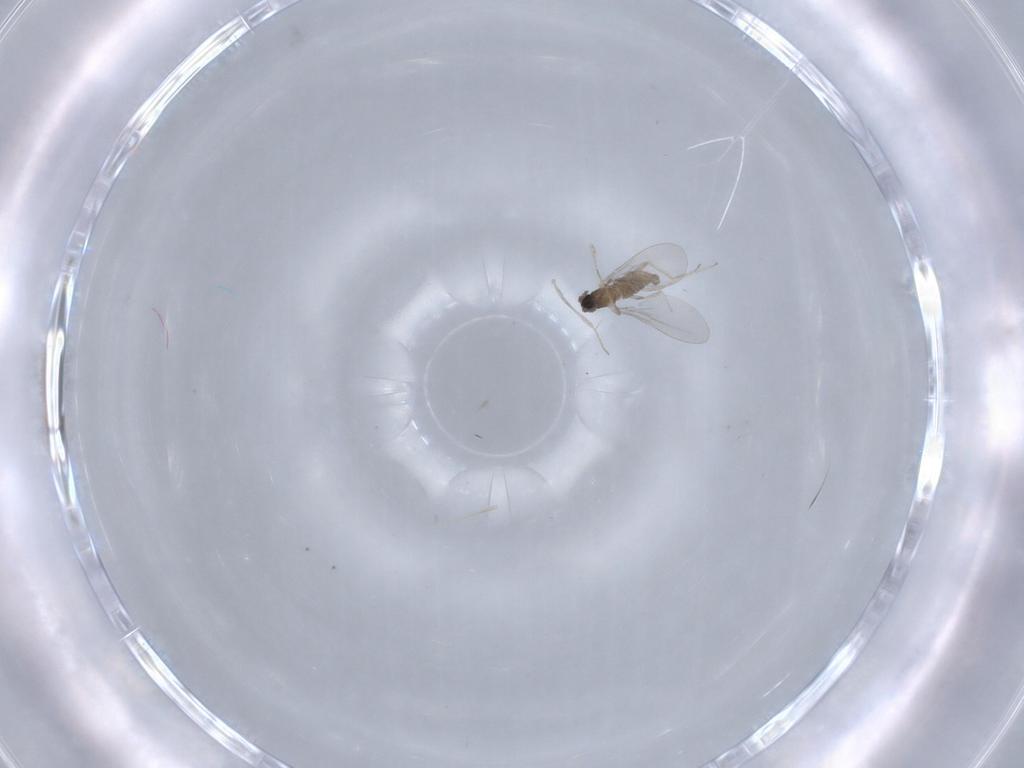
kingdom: Animalia
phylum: Arthropoda
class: Insecta
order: Diptera
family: Cecidomyiidae
